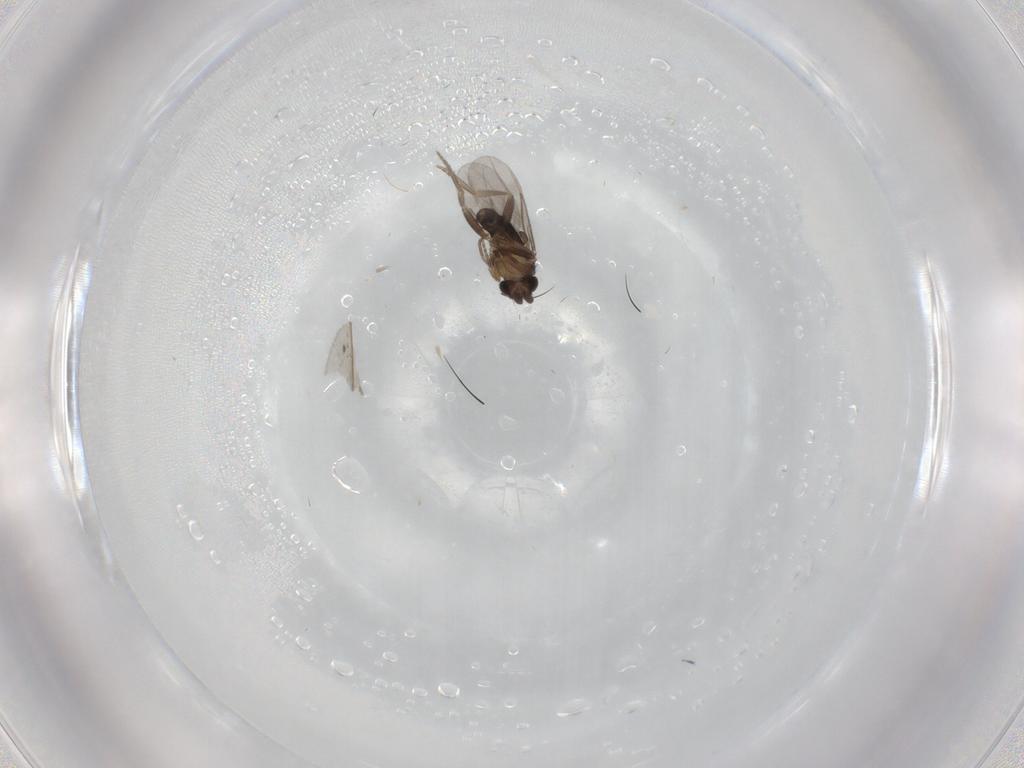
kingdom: Animalia
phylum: Arthropoda
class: Insecta
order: Diptera
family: Phoridae
